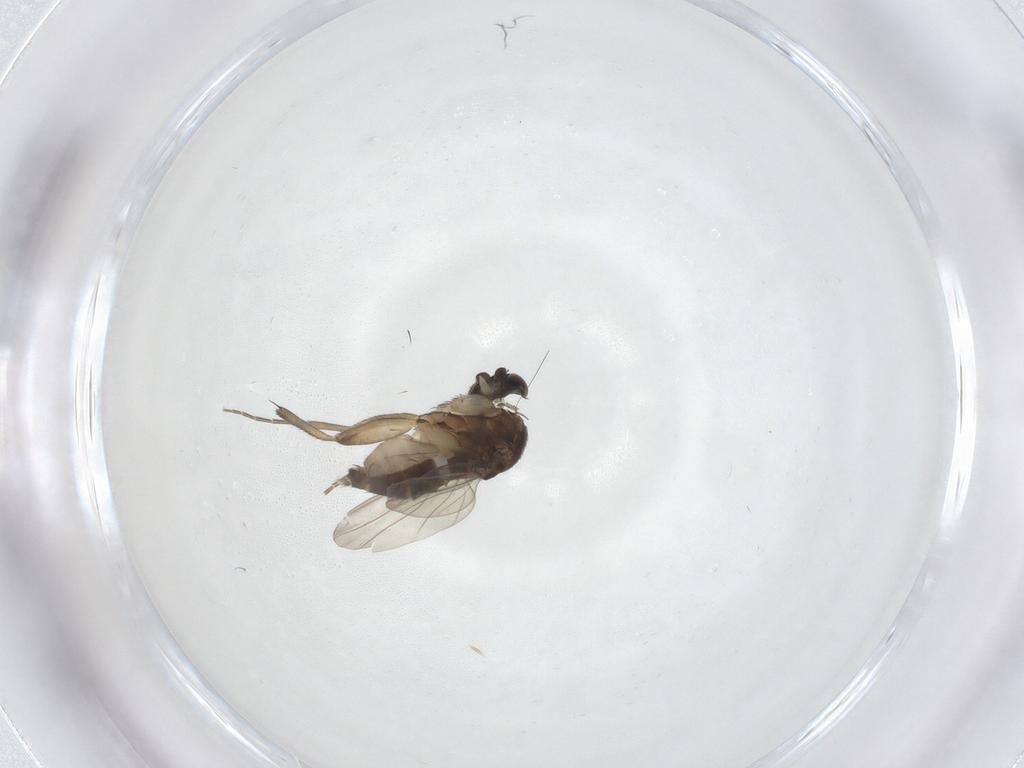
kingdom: Animalia
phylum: Arthropoda
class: Insecta
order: Diptera
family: Phoridae
